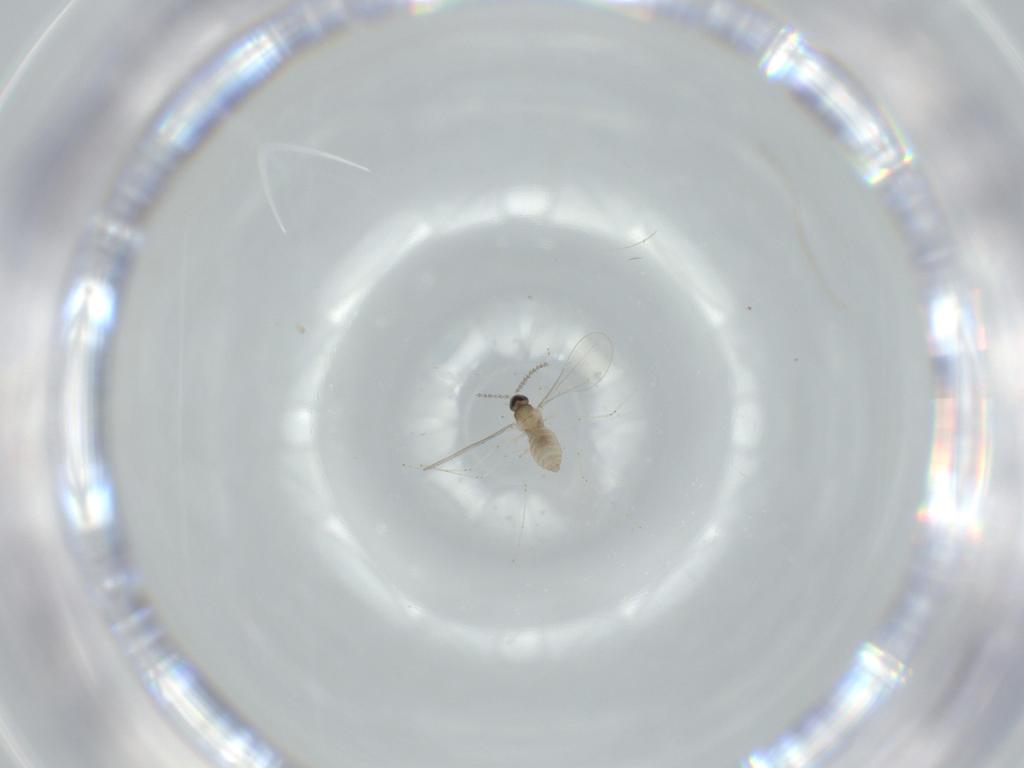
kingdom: Animalia
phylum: Arthropoda
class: Insecta
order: Diptera
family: Cecidomyiidae
